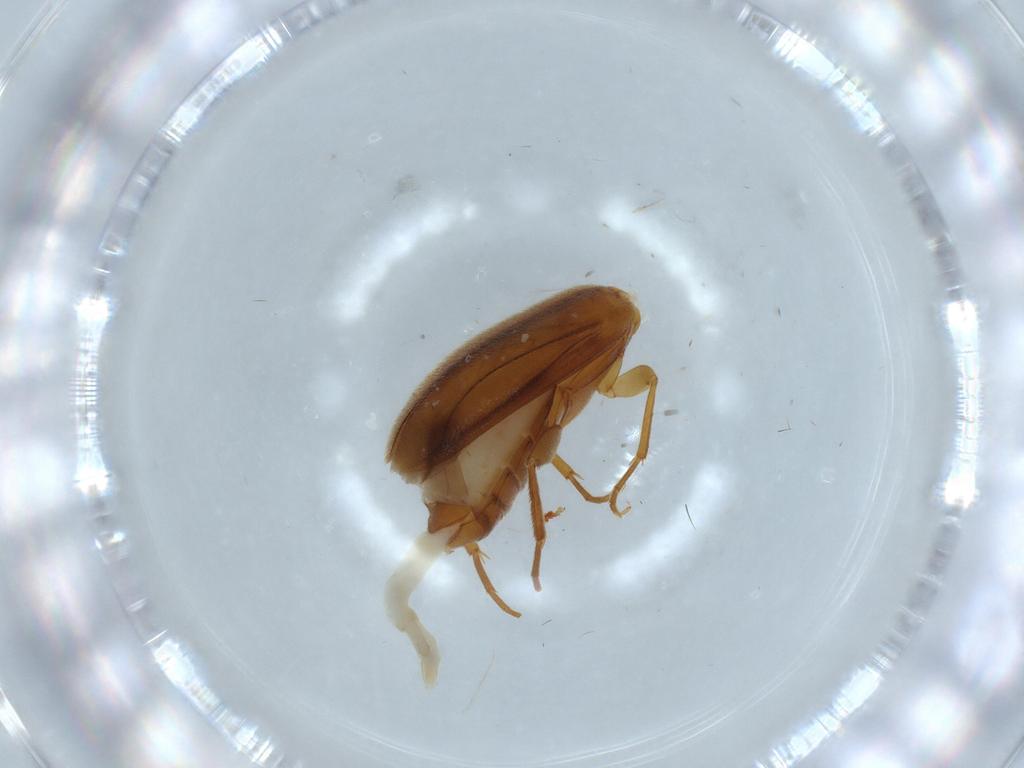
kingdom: Animalia
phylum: Arthropoda
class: Insecta
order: Coleoptera
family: Scraptiidae
